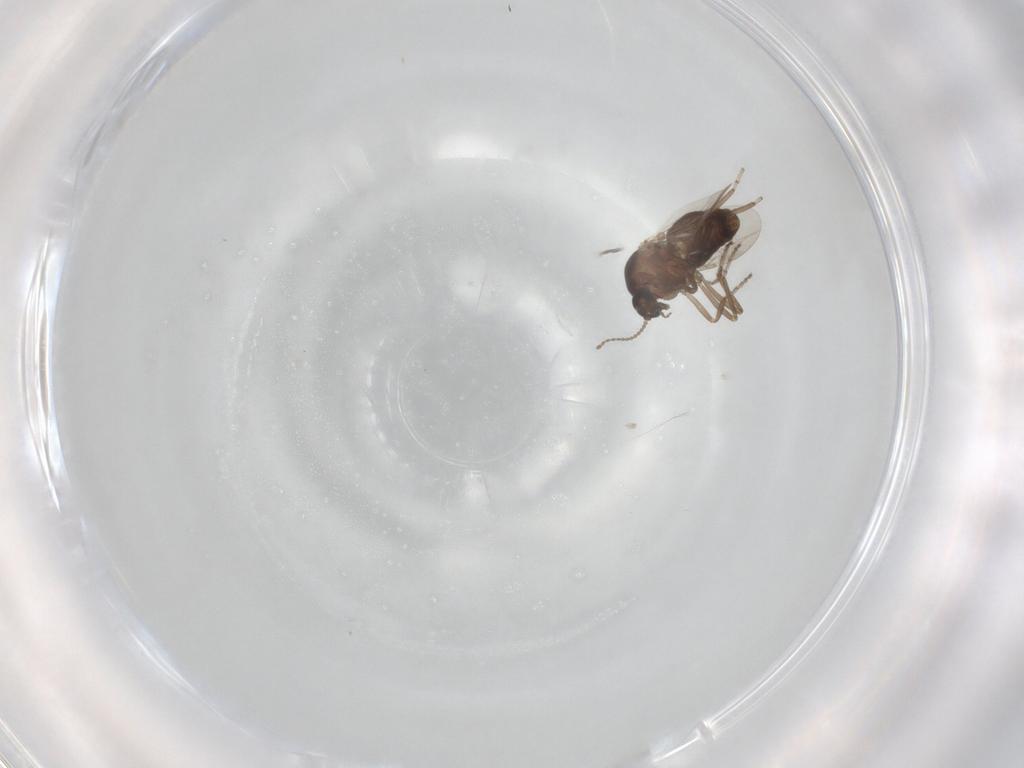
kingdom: Animalia
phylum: Arthropoda
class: Insecta
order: Diptera
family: Ceratopogonidae
